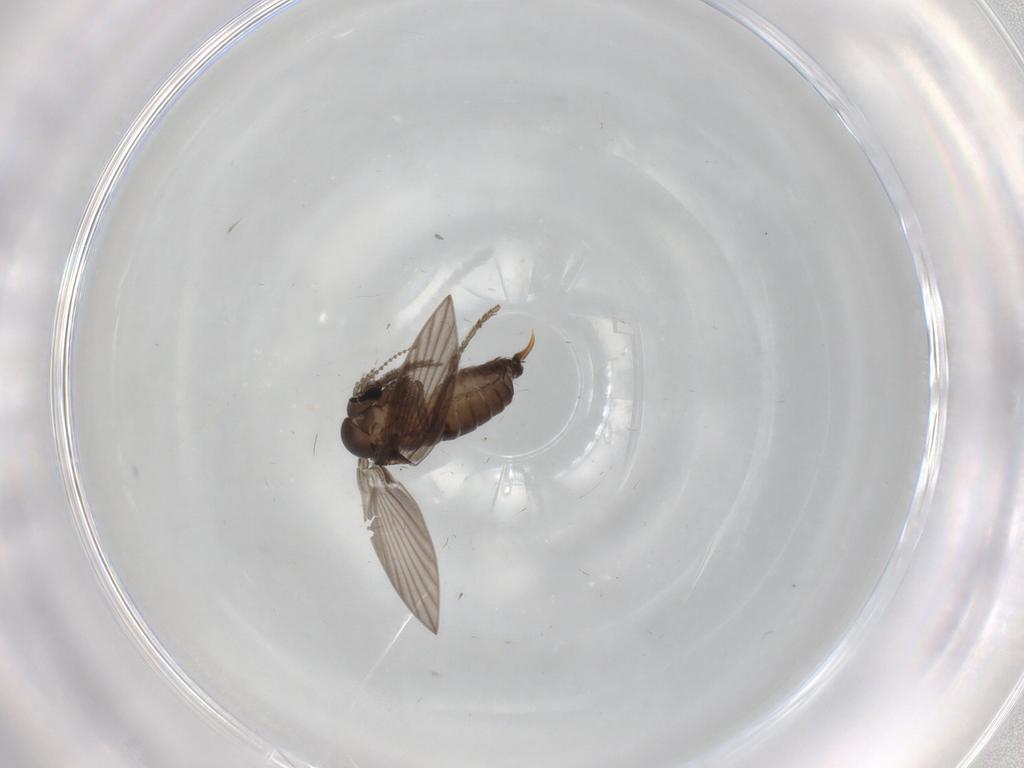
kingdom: Animalia
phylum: Arthropoda
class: Insecta
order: Diptera
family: Psychodidae
